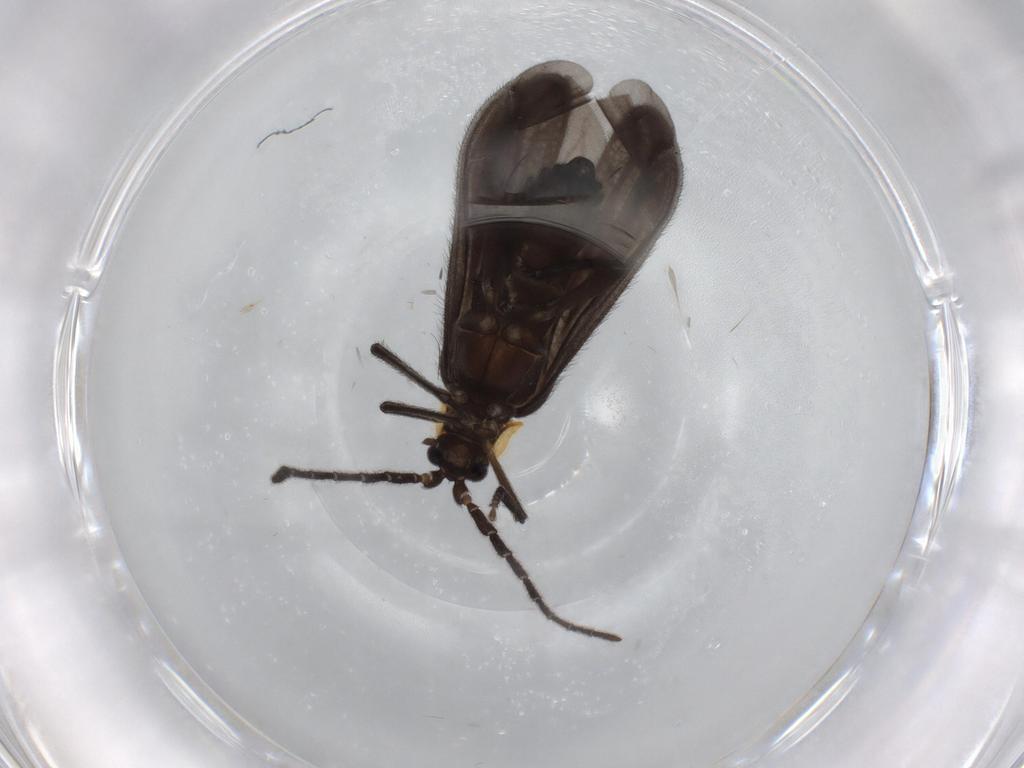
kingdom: Animalia
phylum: Arthropoda
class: Insecta
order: Coleoptera
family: Lycidae
